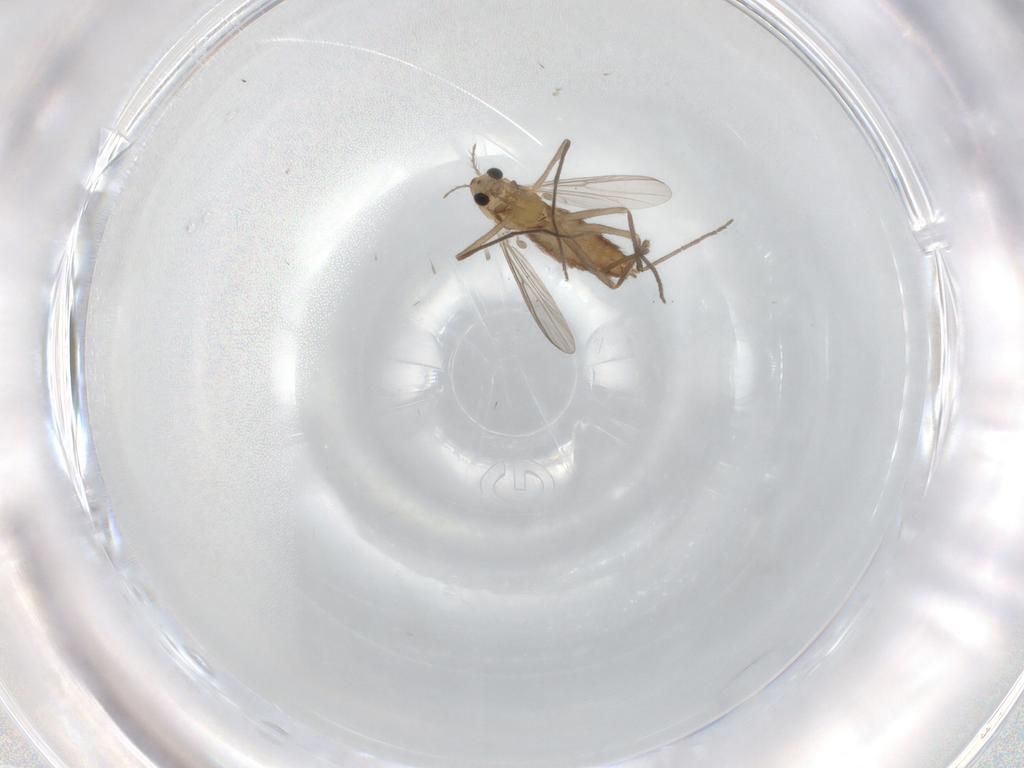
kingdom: Animalia
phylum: Arthropoda
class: Insecta
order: Diptera
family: Chironomidae
